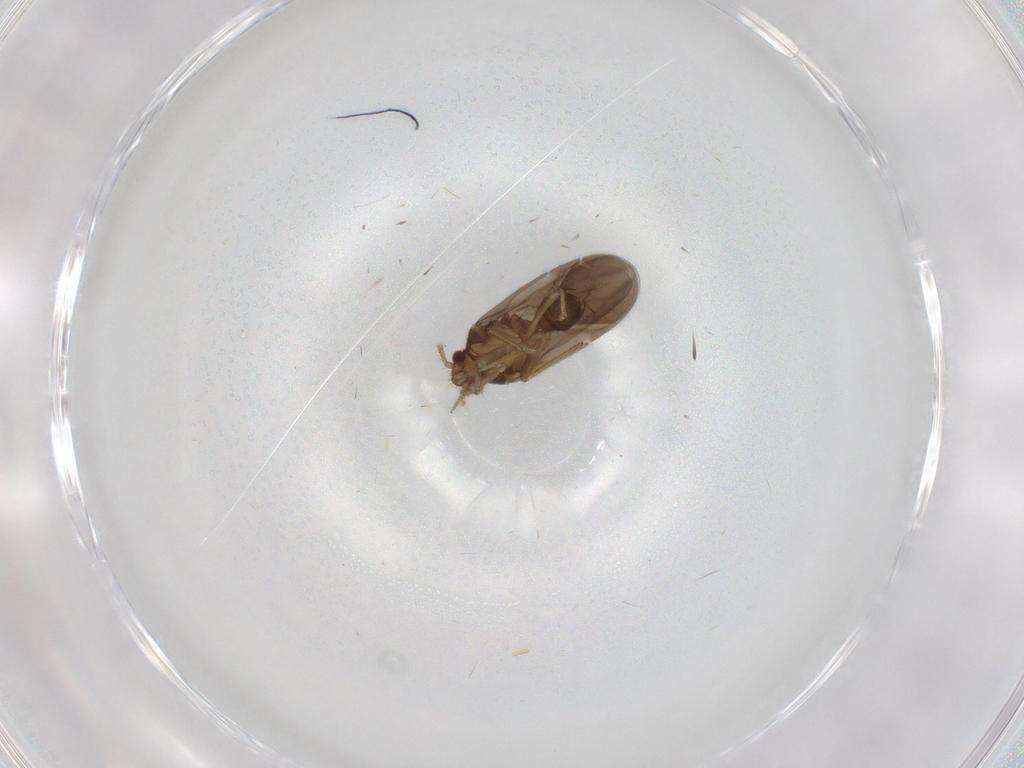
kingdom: Animalia
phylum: Arthropoda
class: Insecta
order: Hemiptera
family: Ceratocombidae
